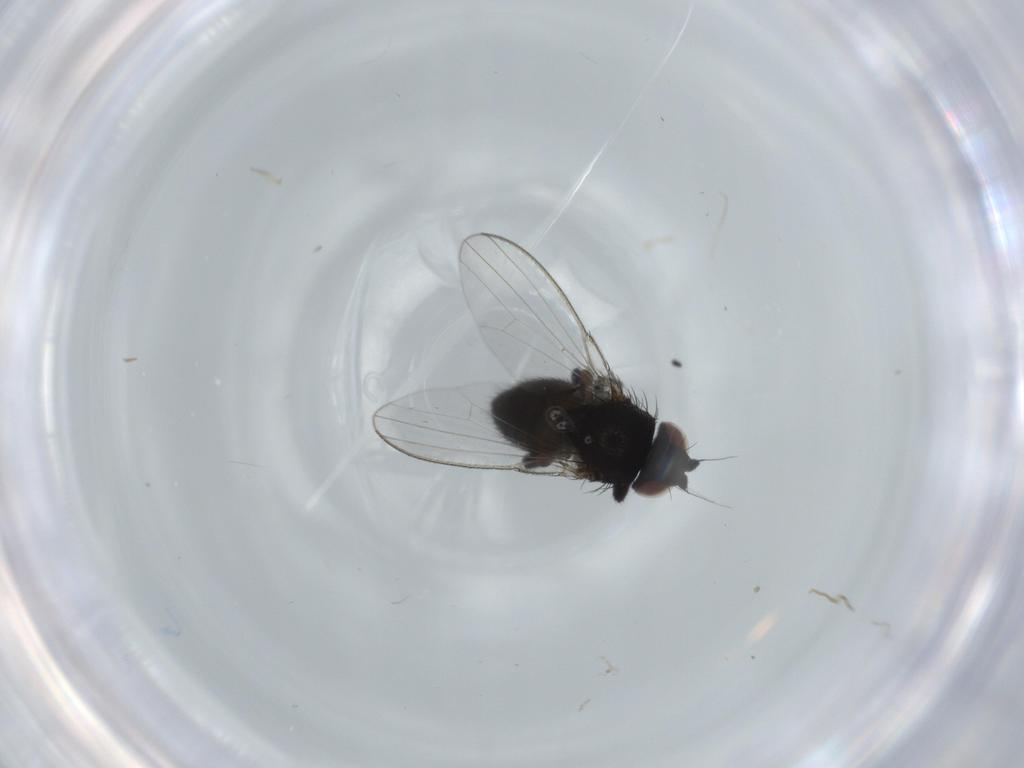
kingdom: Animalia
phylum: Arthropoda
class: Insecta
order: Diptera
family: Milichiidae
